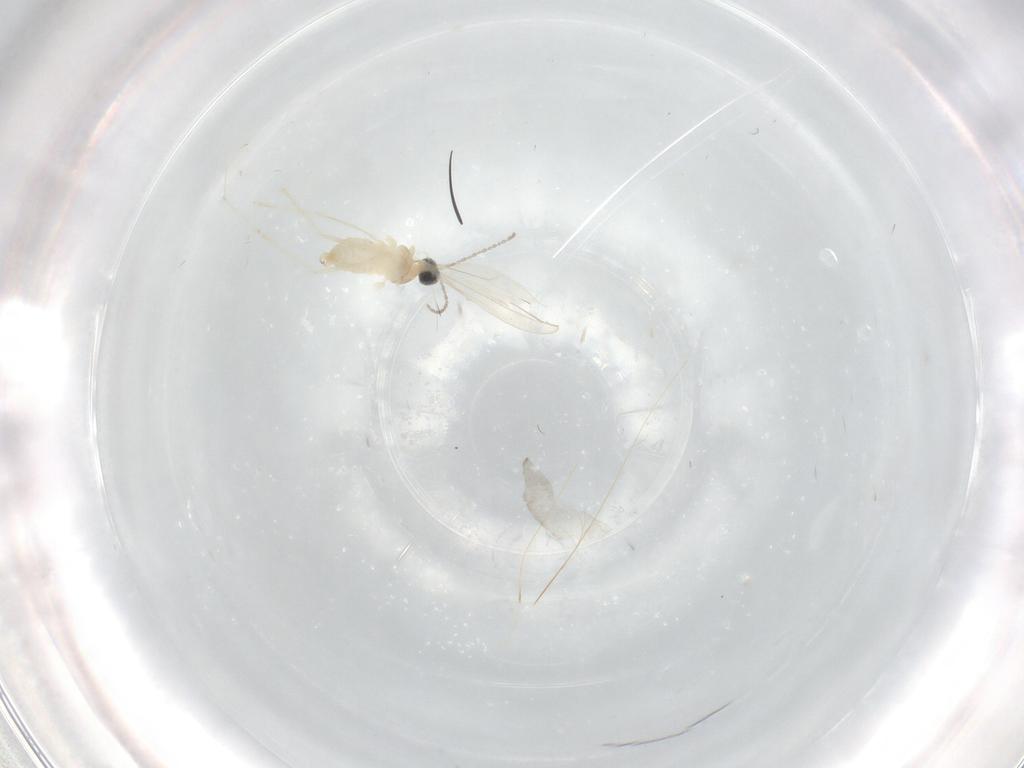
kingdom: Animalia
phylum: Arthropoda
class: Insecta
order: Diptera
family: Cecidomyiidae
